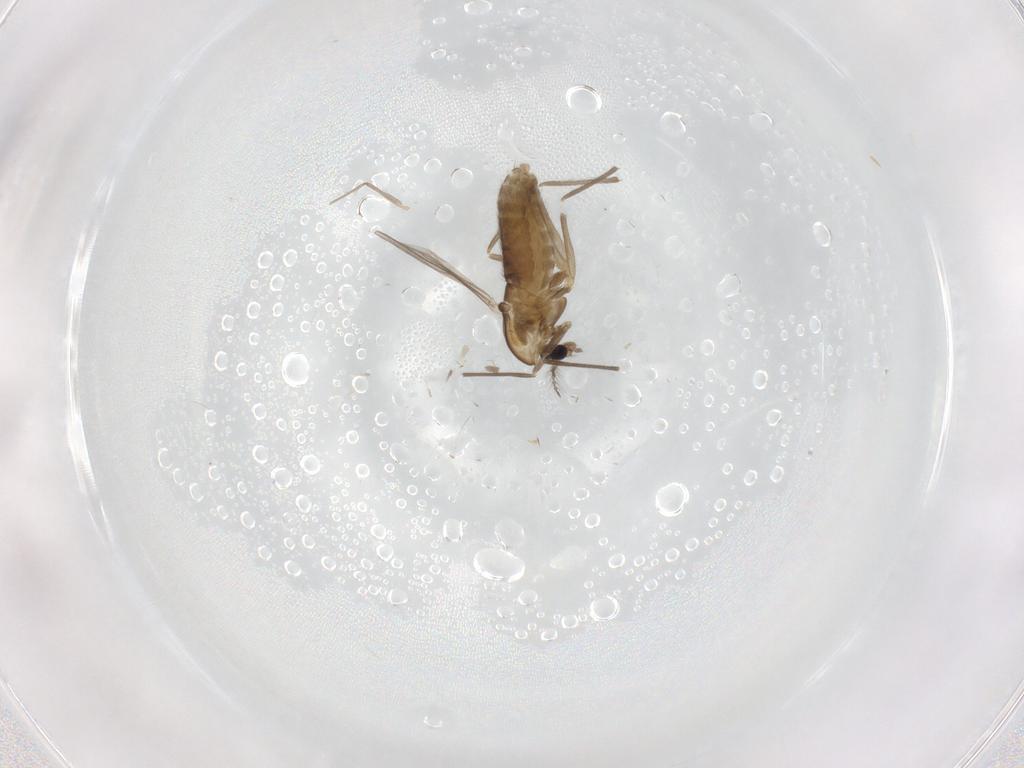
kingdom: Animalia
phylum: Arthropoda
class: Insecta
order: Diptera
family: Chironomidae
